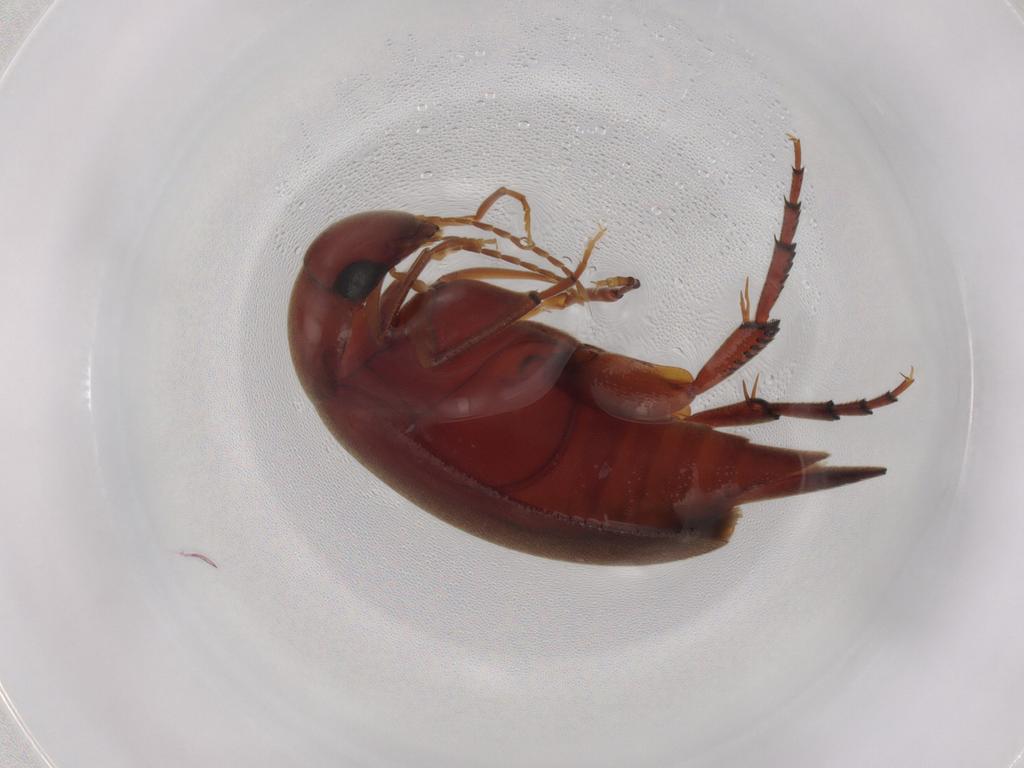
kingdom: Animalia
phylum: Arthropoda
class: Insecta
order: Coleoptera
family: Mordellidae
